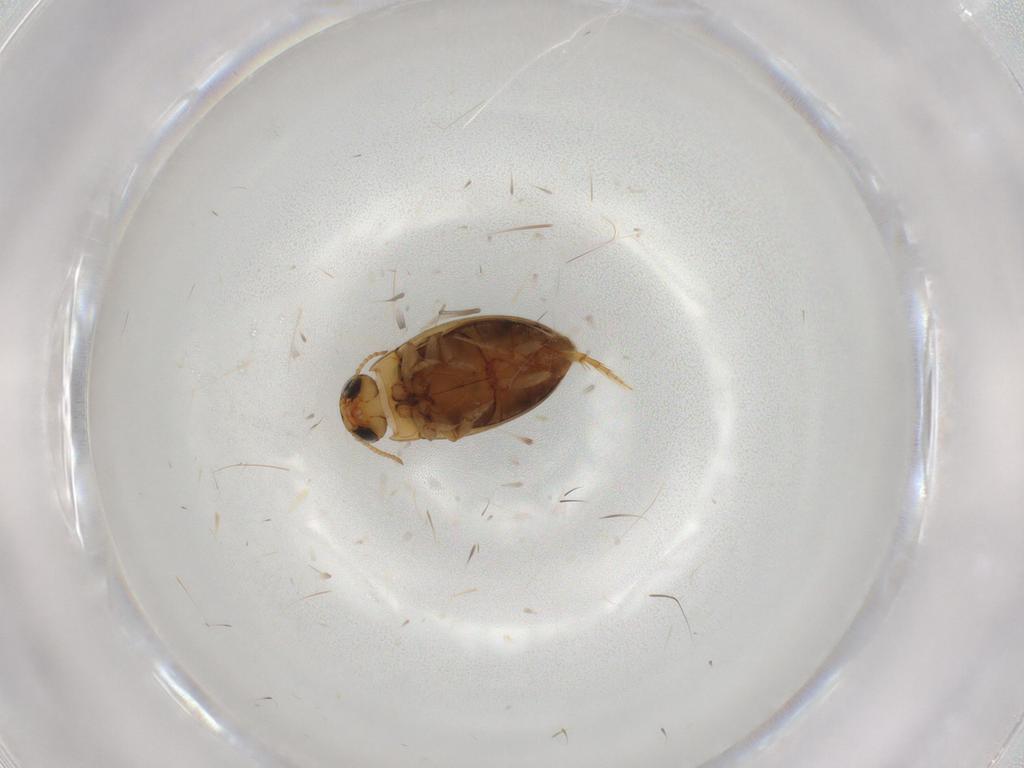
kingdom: Animalia
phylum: Arthropoda
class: Insecta
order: Coleoptera
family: Dytiscidae
